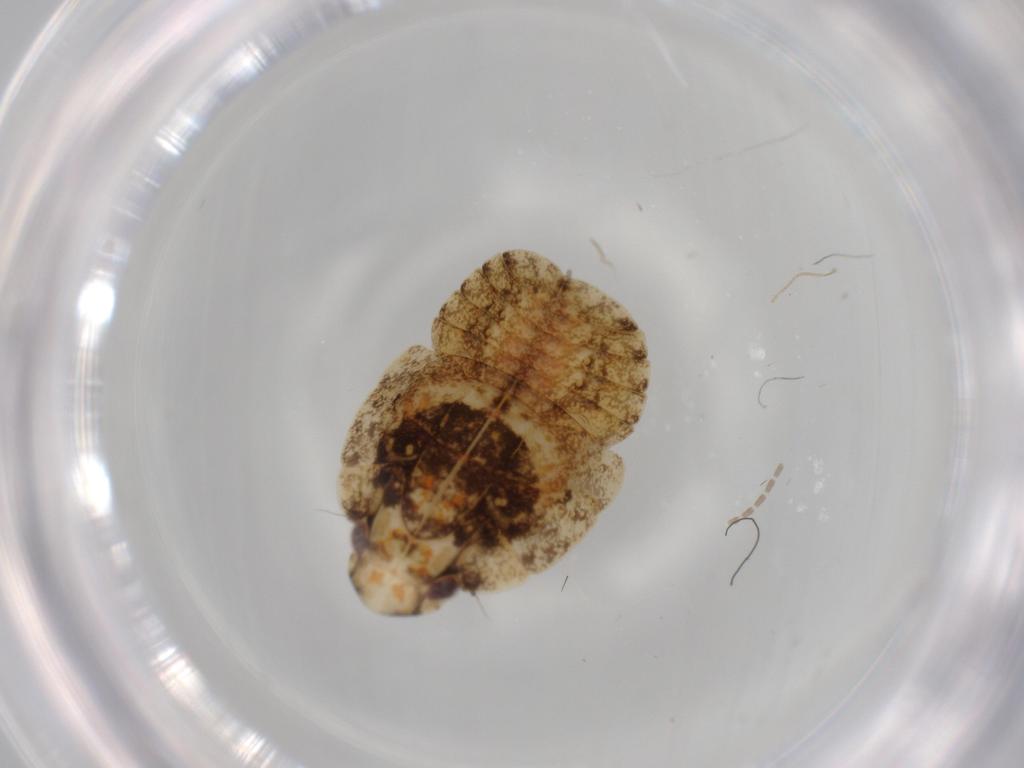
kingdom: Animalia
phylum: Arthropoda
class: Insecta
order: Hemiptera
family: Flatidae
